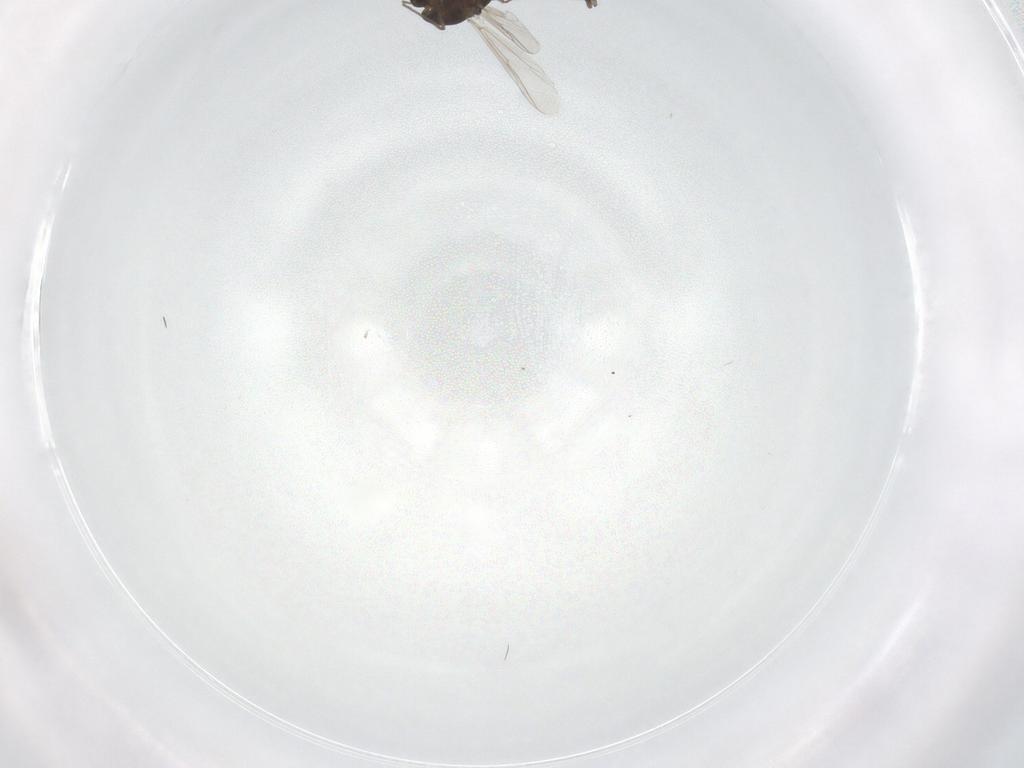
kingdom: Animalia
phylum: Arthropoda
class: Insecta
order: Diptera
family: Chironomidae
